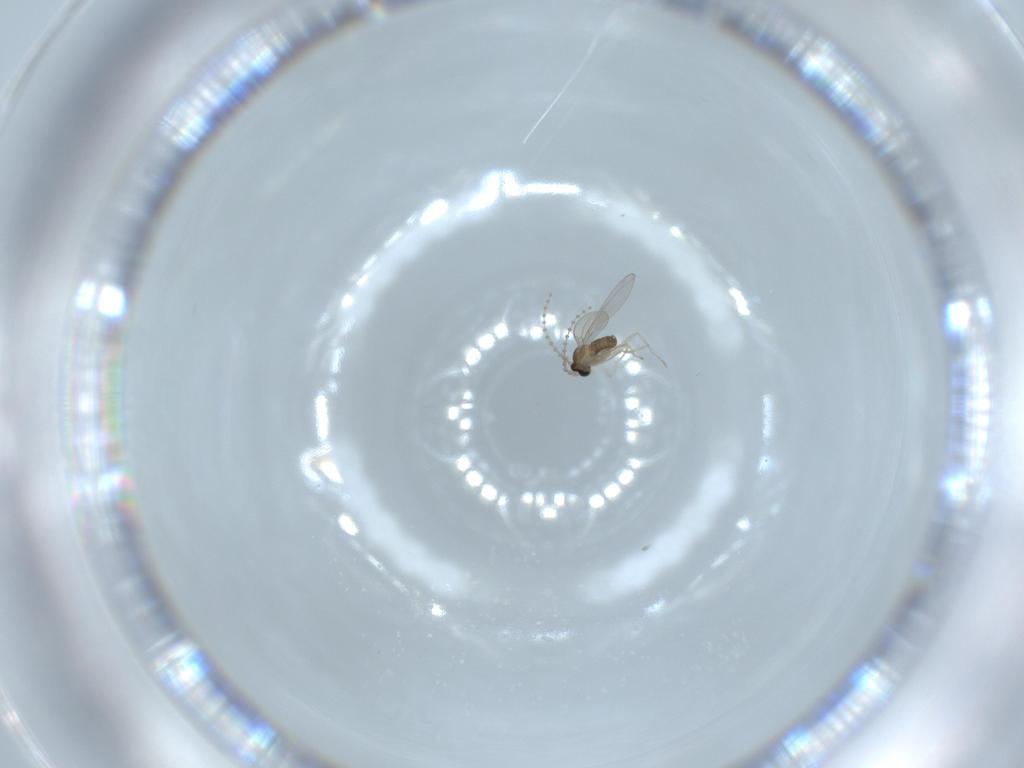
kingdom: Animalia
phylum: Arthropoda
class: Insecta
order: Diptera
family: Cecidomyiidae
